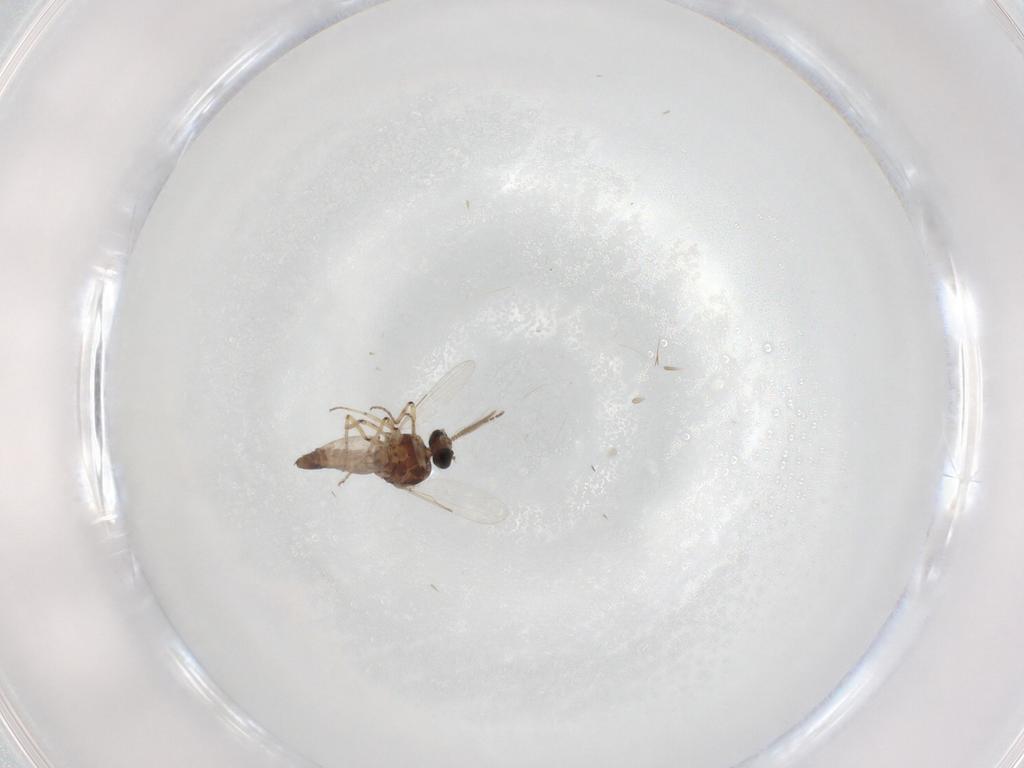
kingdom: Animalia
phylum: Arthropoda
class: Insecta
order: Diptera
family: Ceratopogonidae
